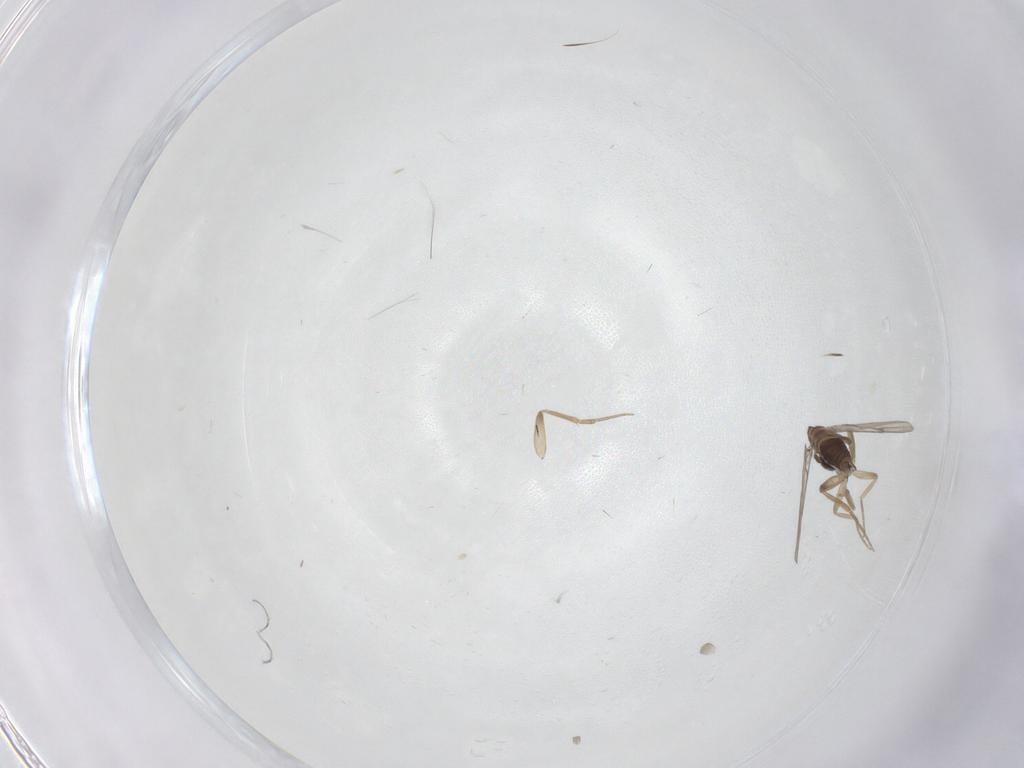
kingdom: Animalia
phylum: Arthropoda
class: Insecta
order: Diptera
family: Phoridae
